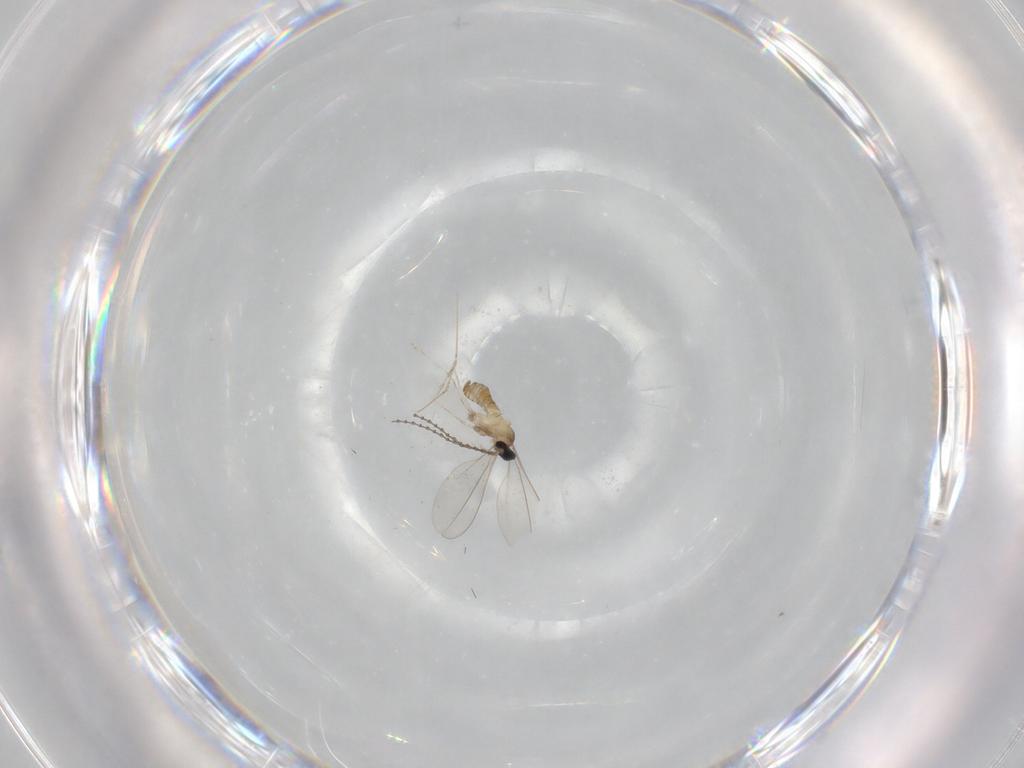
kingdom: Animalia
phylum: Arthropoda
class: Insecta
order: Diptera
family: Cecidomyiidae
